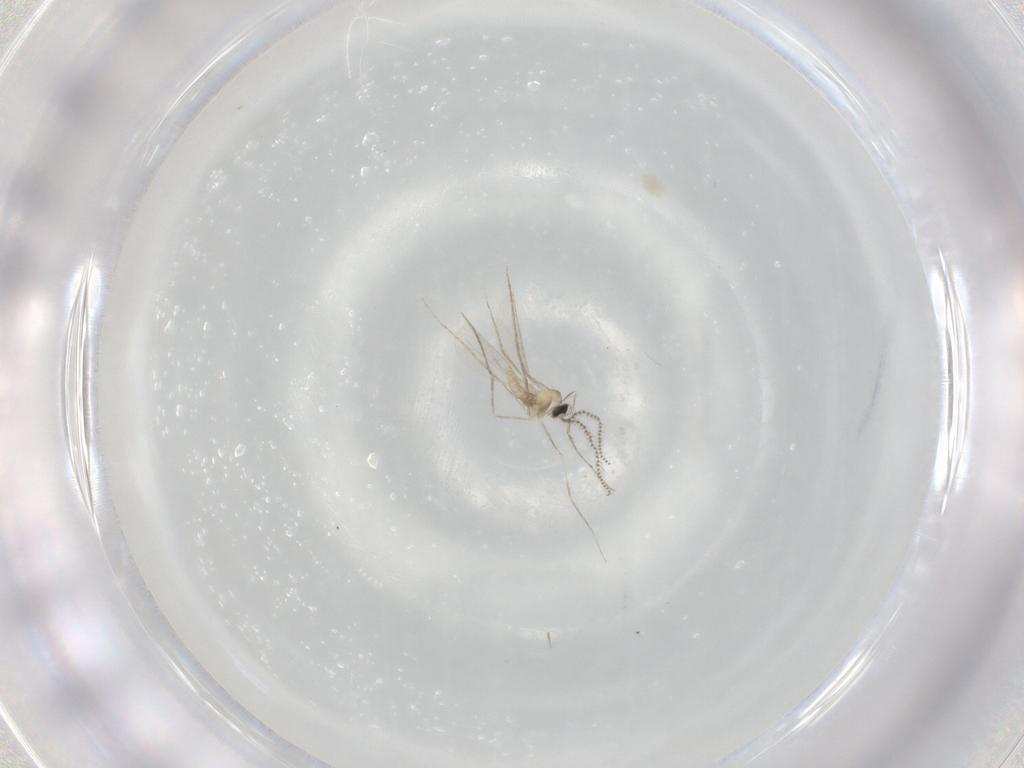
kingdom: Animalia
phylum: Arthropoda
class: Insecta
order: Diptera
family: Cecidomyiidae
